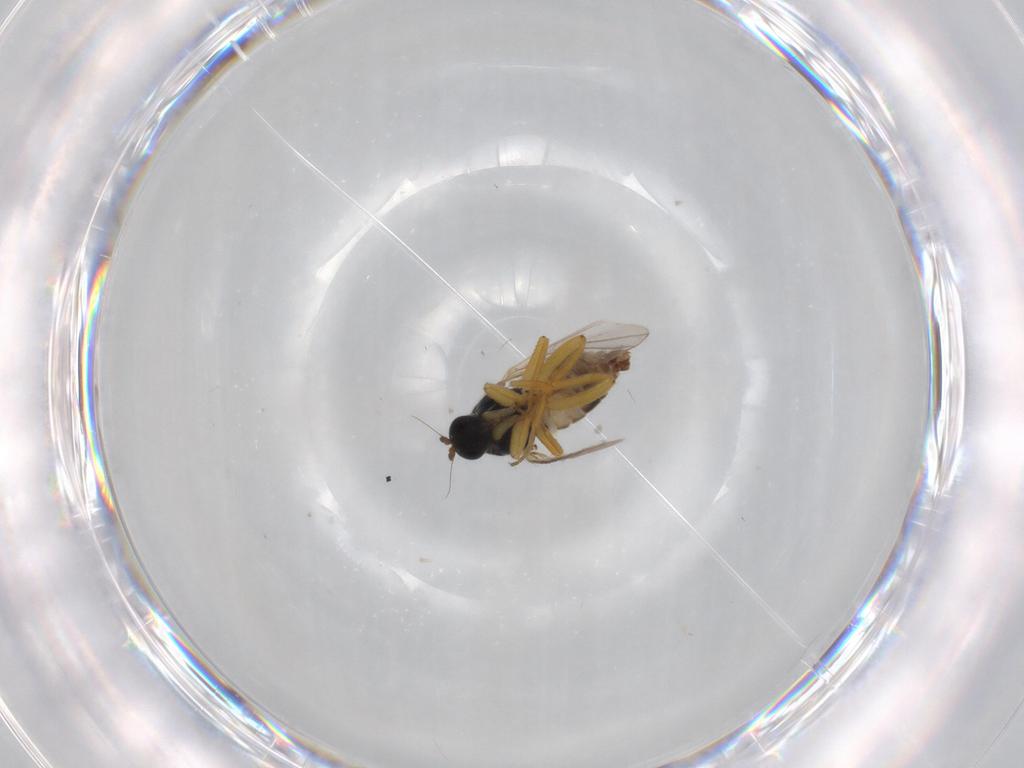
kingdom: Animalia
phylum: Arthropoda
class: Insecta
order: Diptera
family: Hybotidae
